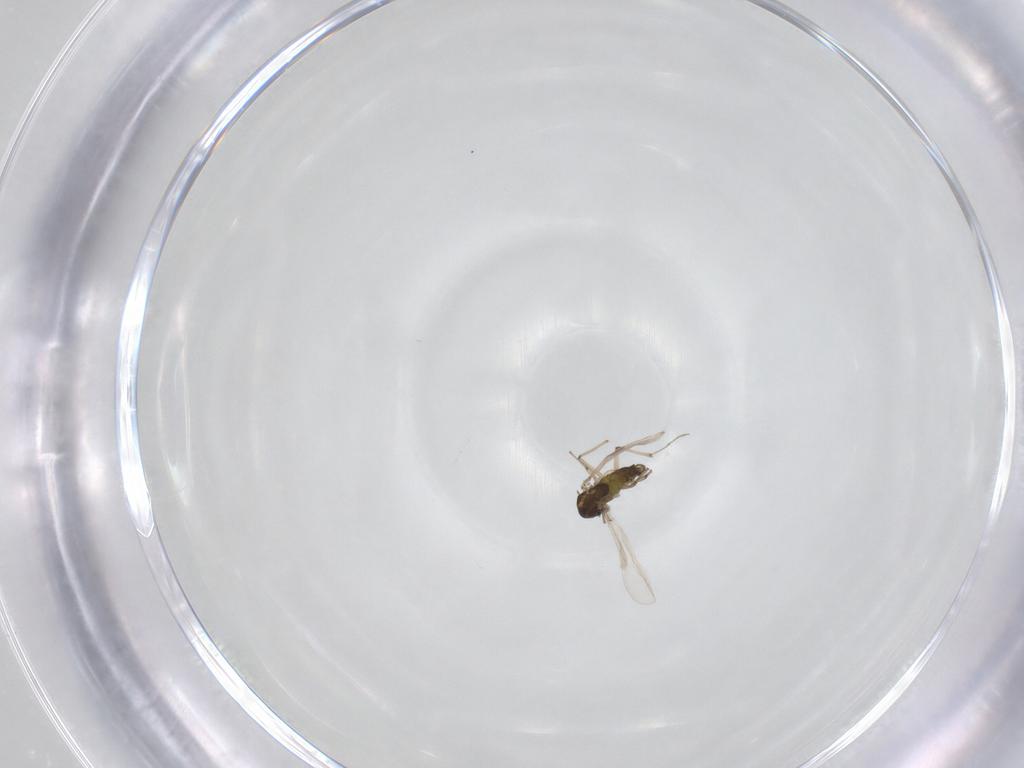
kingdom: Animalia
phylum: Arthropoda
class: Insecta
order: Diptera
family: Chironomidae
